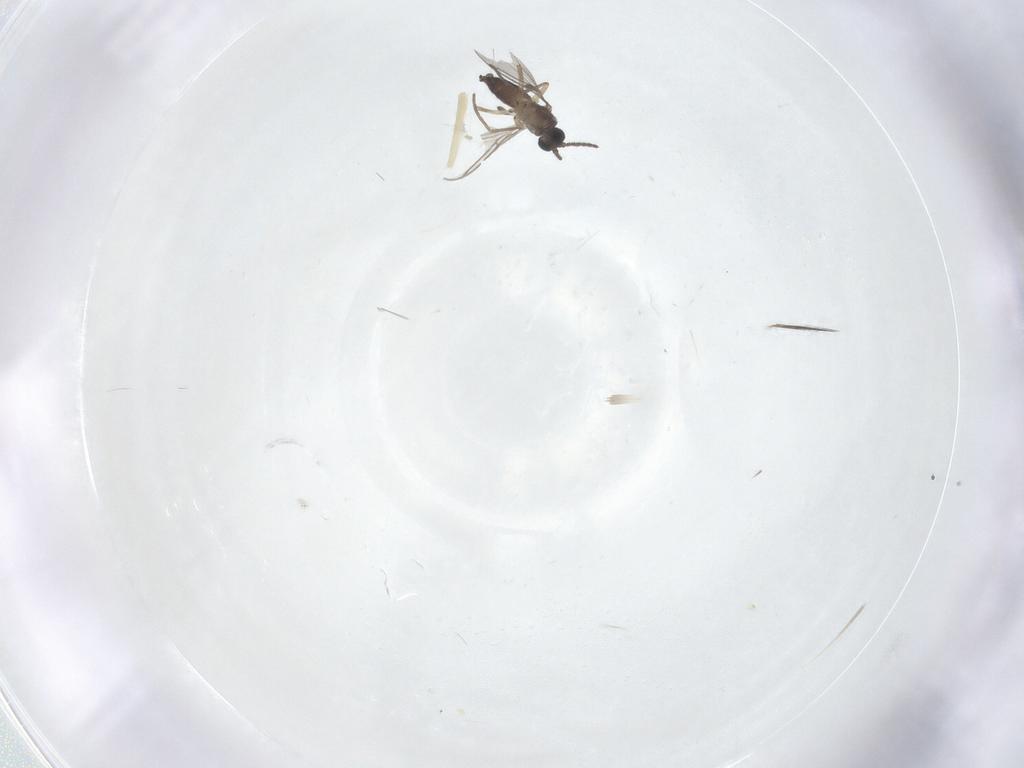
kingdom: Animalia
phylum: Arthropoda
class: Insecta
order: Diptera
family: Sciaridae
